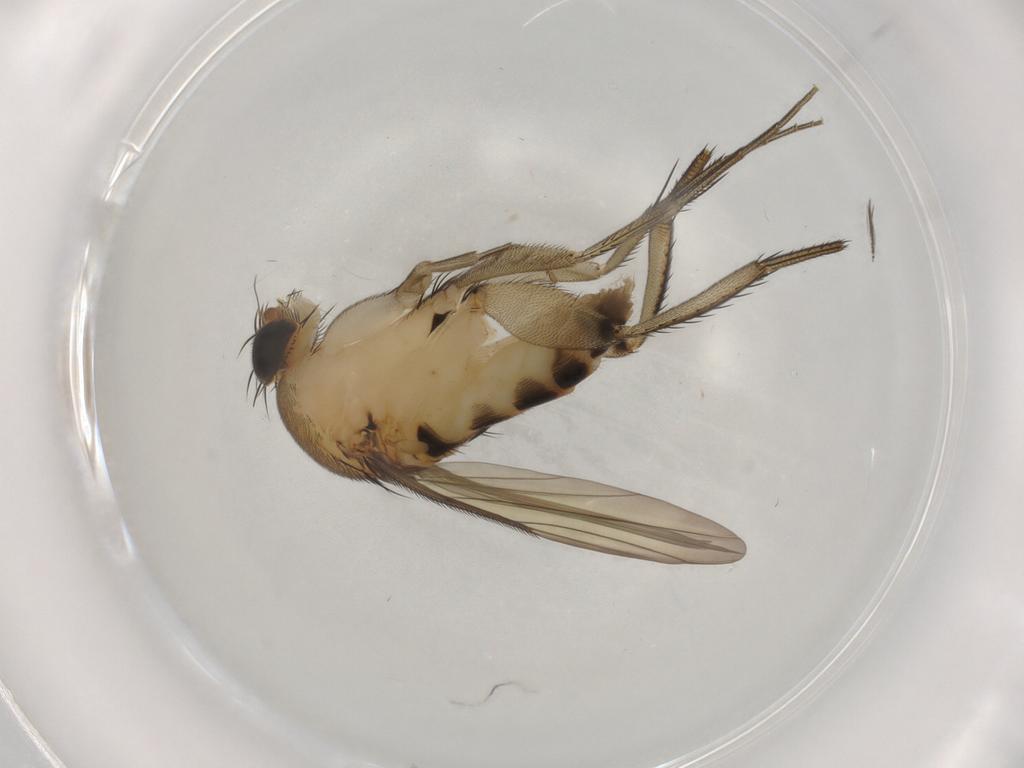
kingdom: Animalia
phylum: Arthropoda
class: Insecta
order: Diptera
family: Phoridae
